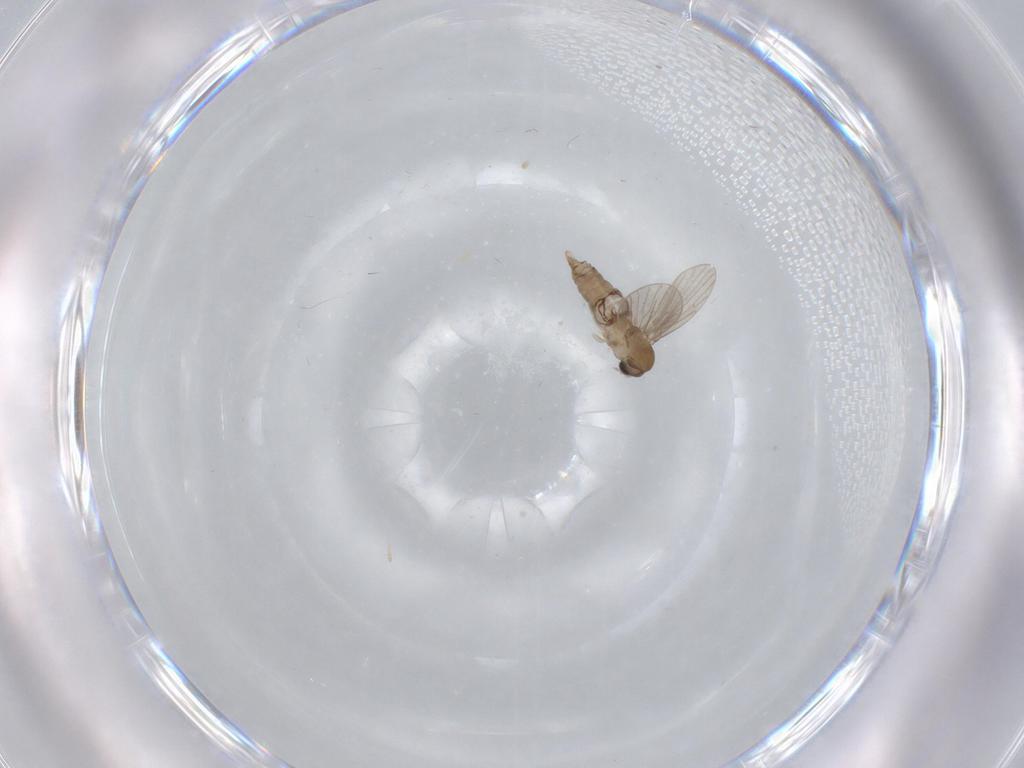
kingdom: Animalia
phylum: Arthropoda
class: Insecta
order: Diptera
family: Psychodidae
